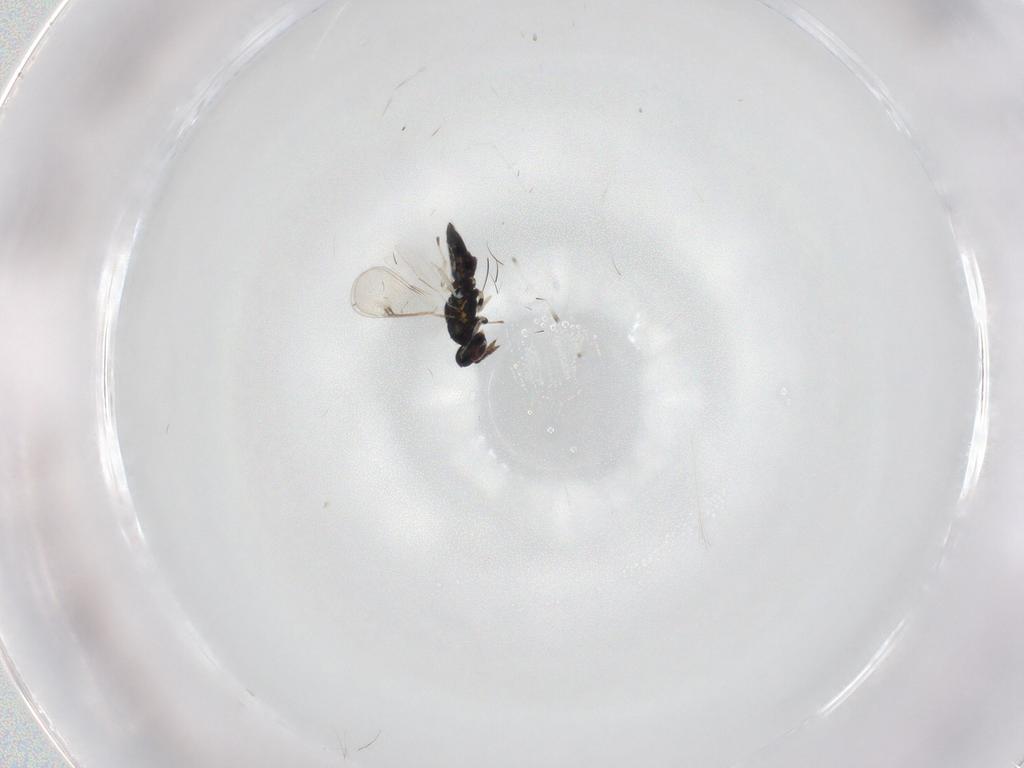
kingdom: Animalia
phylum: Arthropoda
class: Insecta
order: Hymenoptera
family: Eulophidae
